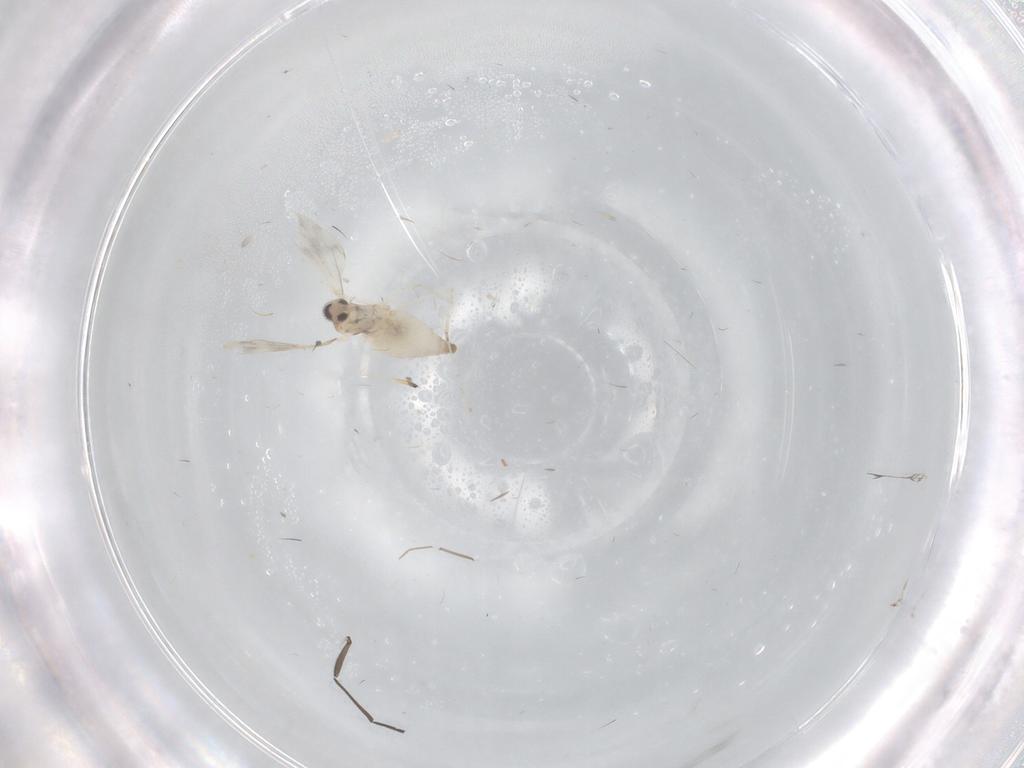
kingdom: Animalia
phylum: Arthropoda
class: Insecta
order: Diptera
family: Cecidomyiidae
